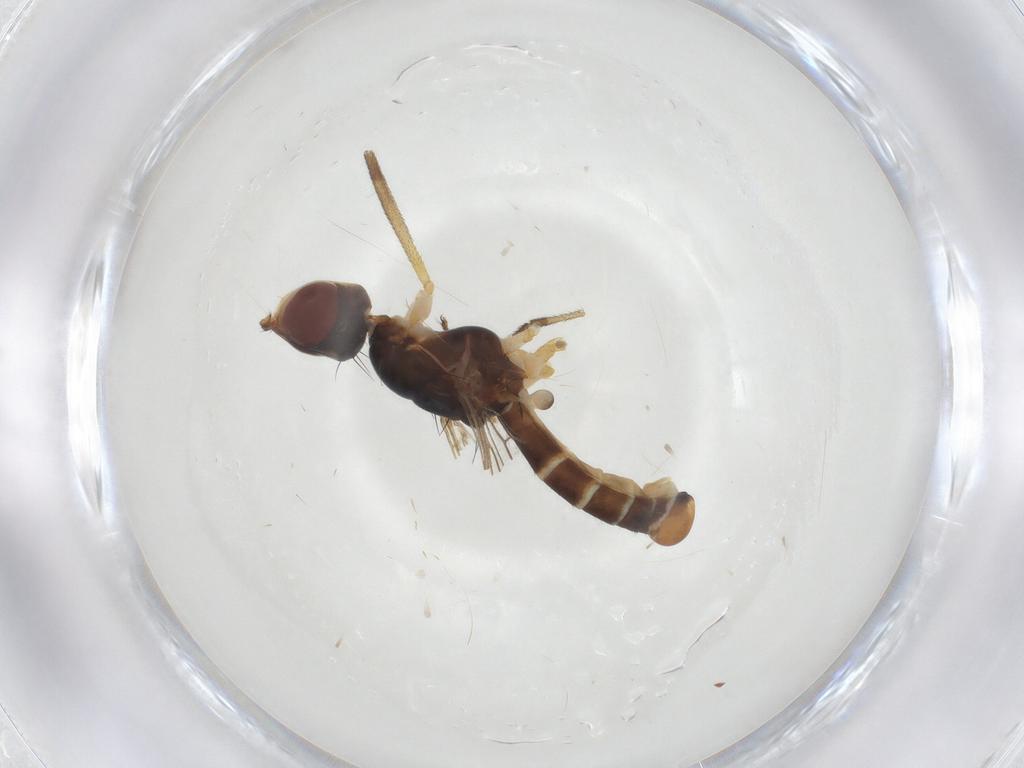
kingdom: Animalia
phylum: Arthropoda
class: Insecta
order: Diptera
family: Micropezidae
